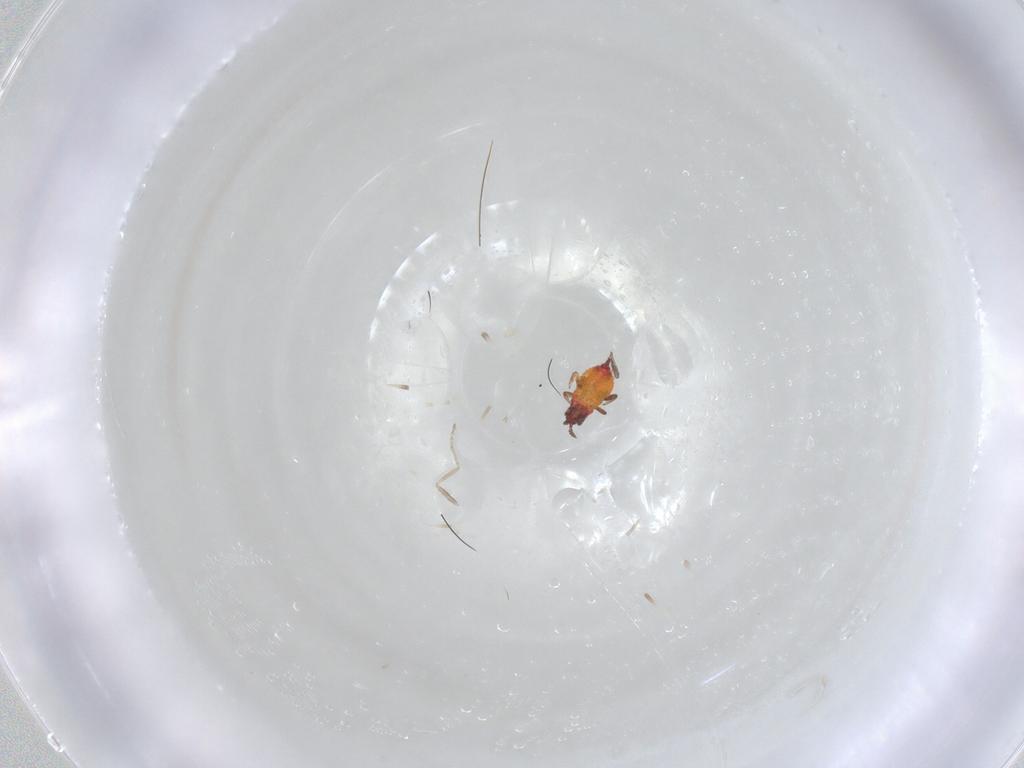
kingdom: Animalia
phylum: Arthropoda
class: Insecta
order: Thysanoptera
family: Phlaeothripidae
